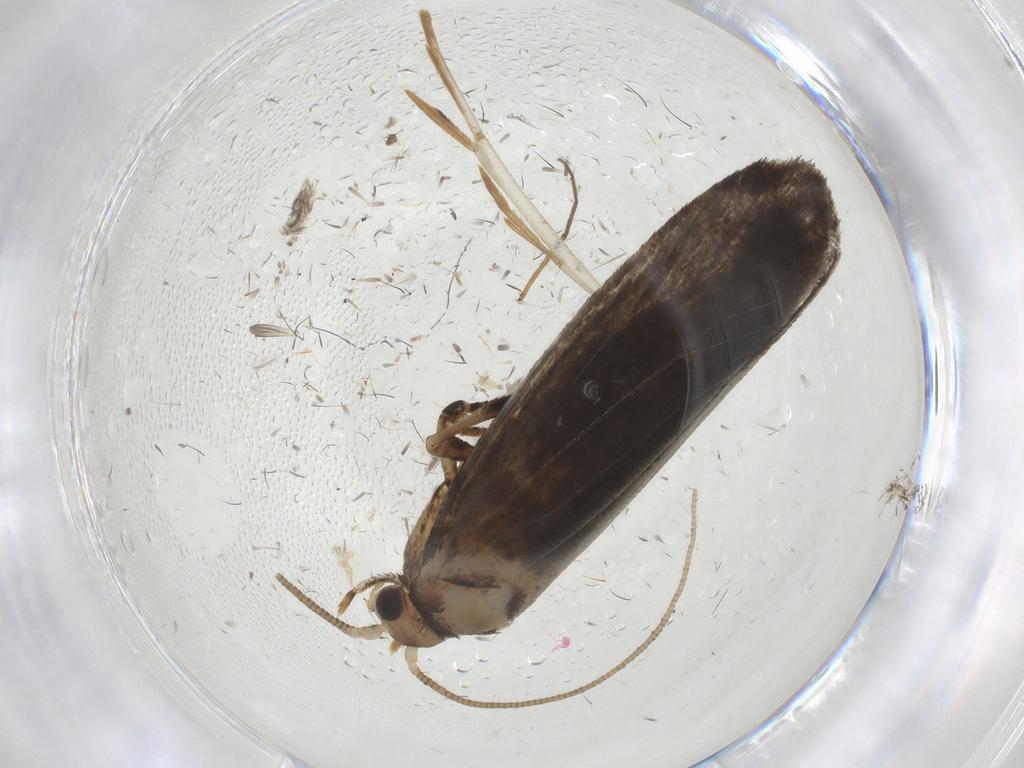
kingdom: Animalia
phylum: Arthropoda
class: Insecta
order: Lepidoptera
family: Tineidae
